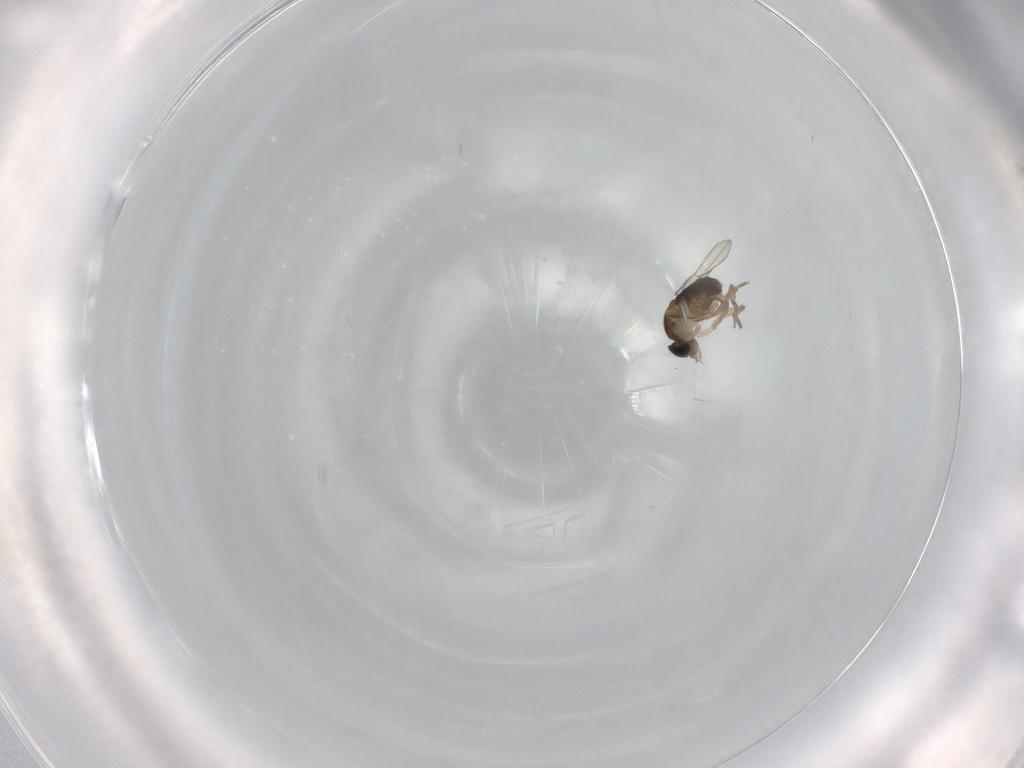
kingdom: Animalia
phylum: Arthropoda
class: Insecta
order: Diptera
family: Phoridae
